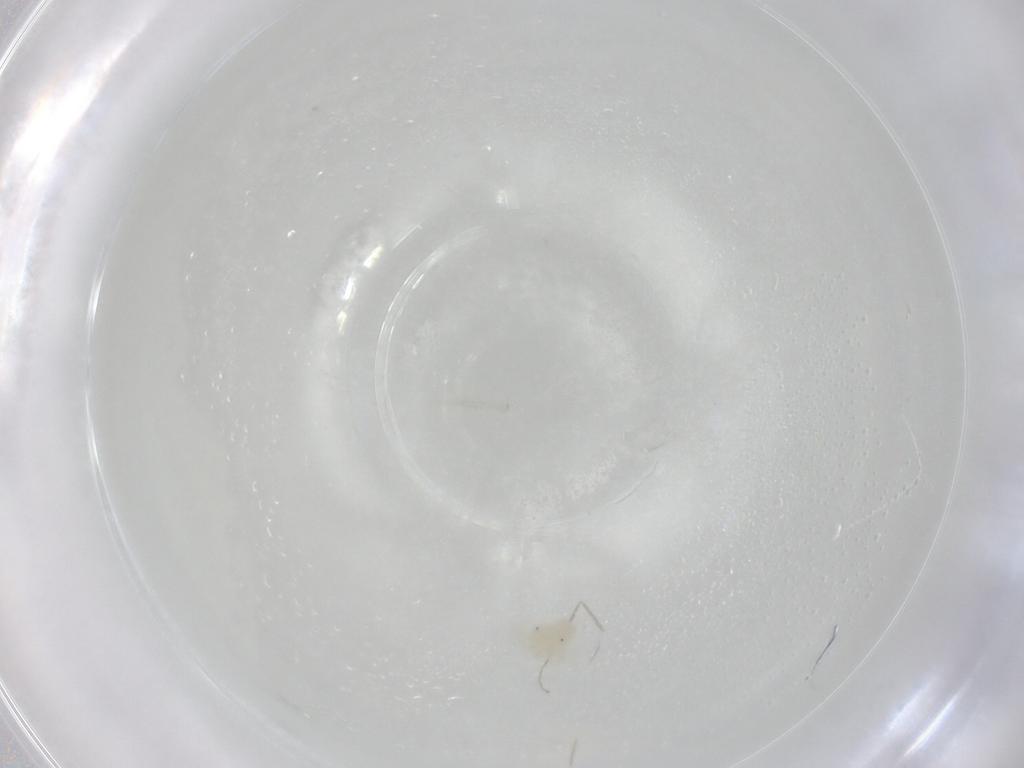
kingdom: Animalia
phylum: Arthropoda
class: Arachnida
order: Trombidiformes
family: Anystidae
